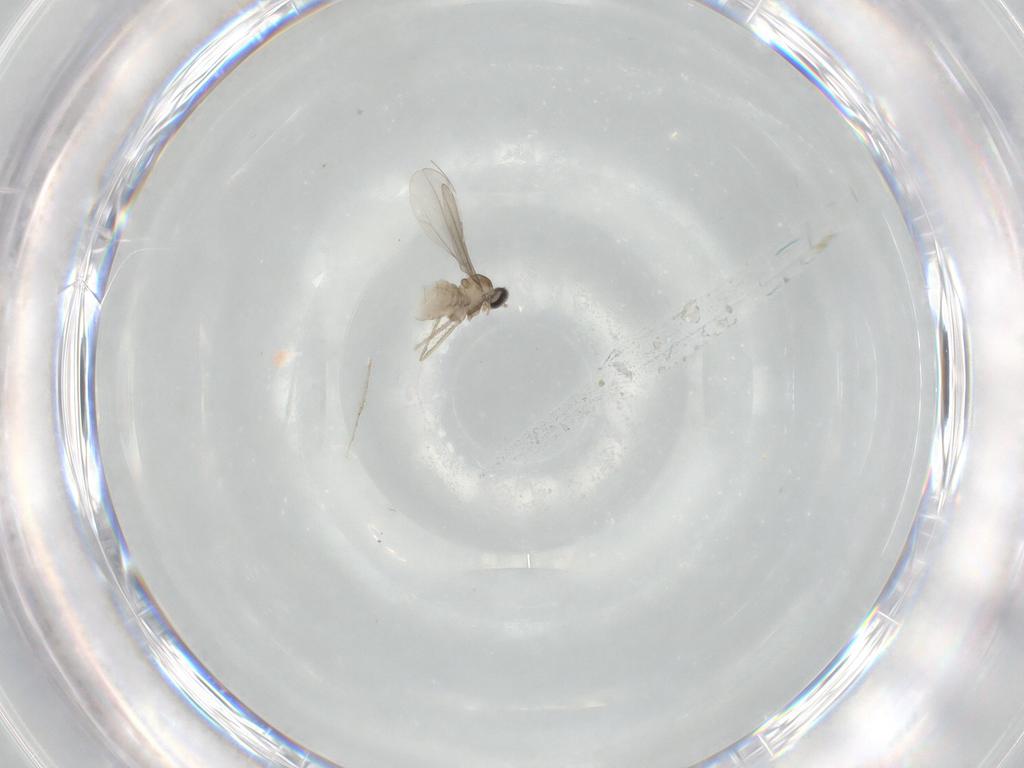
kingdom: Animalia
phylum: Arthropoda
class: Insecta
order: Diptera
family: Cecidomyiidae
